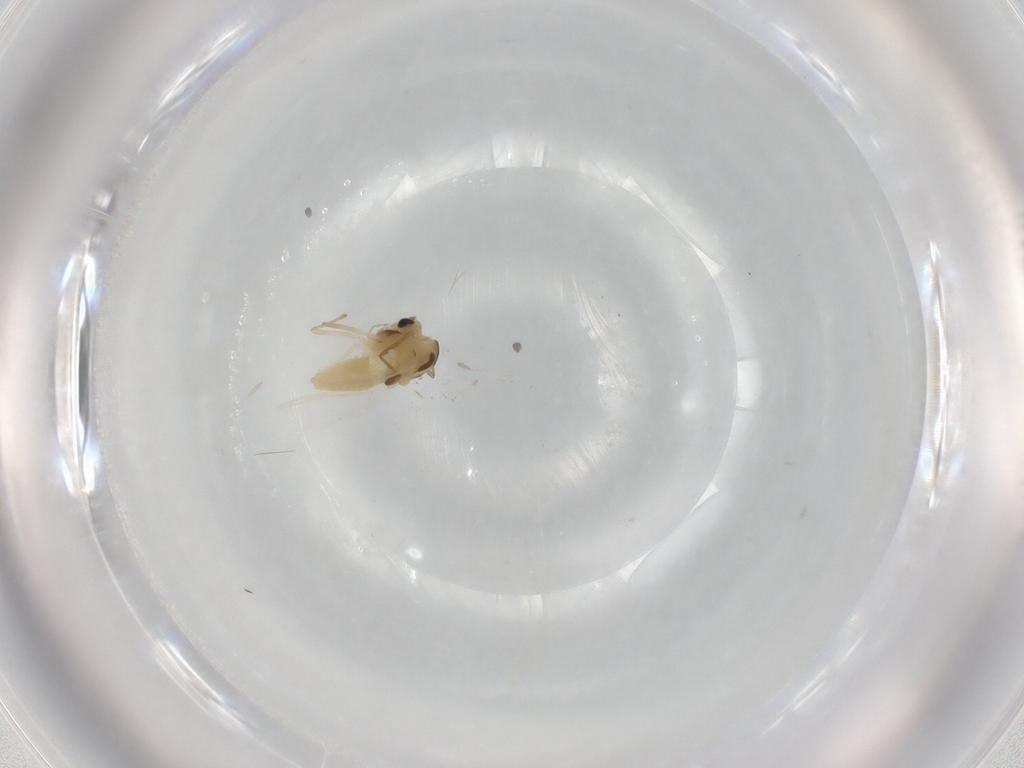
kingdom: Animalia
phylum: Arthropoda
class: Insecta
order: Diptera
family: Chironomidae
